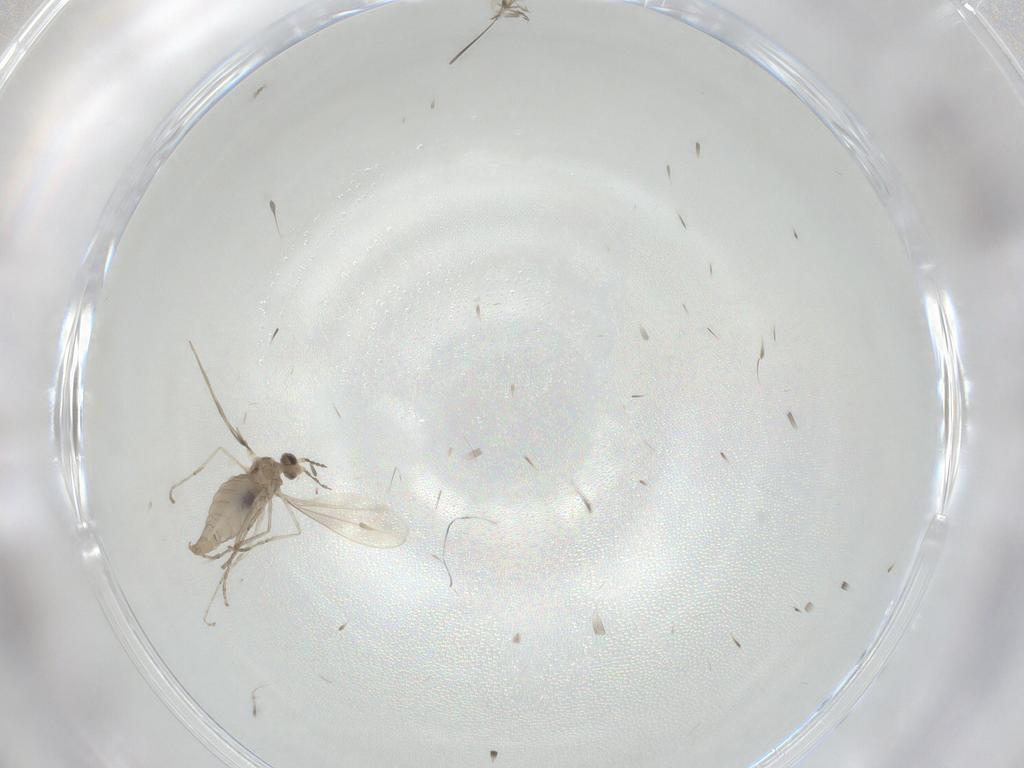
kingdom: Animalia
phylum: Arthropoda
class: Insecta
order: Diptera
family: Cecidomyiidae
